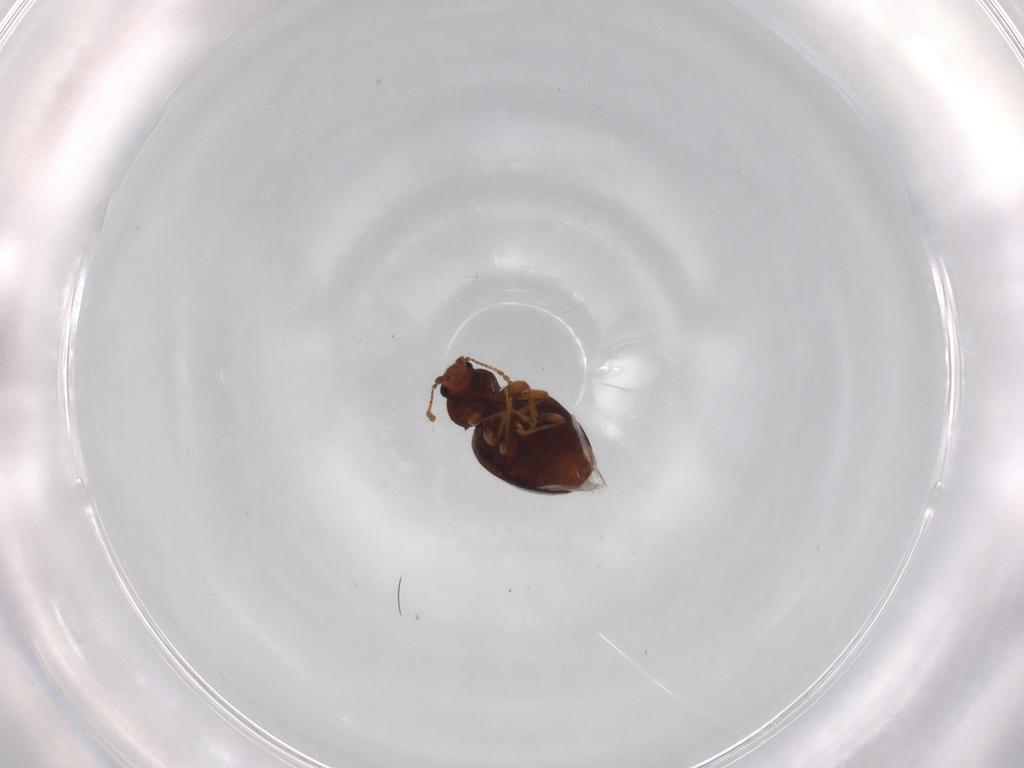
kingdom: Animalia
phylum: Arthropoda
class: Insecta
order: Coleoptera
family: Latridiidae
